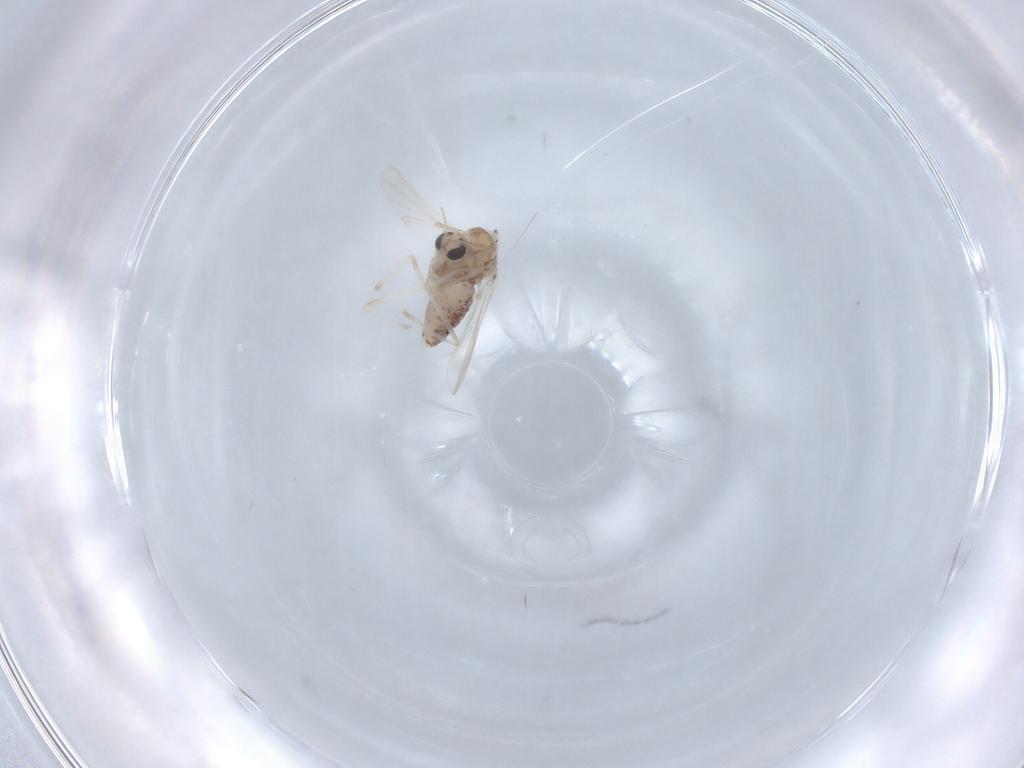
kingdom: Animalia
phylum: Arthropoda
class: Insecta
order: Diptera
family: Chironomidae
